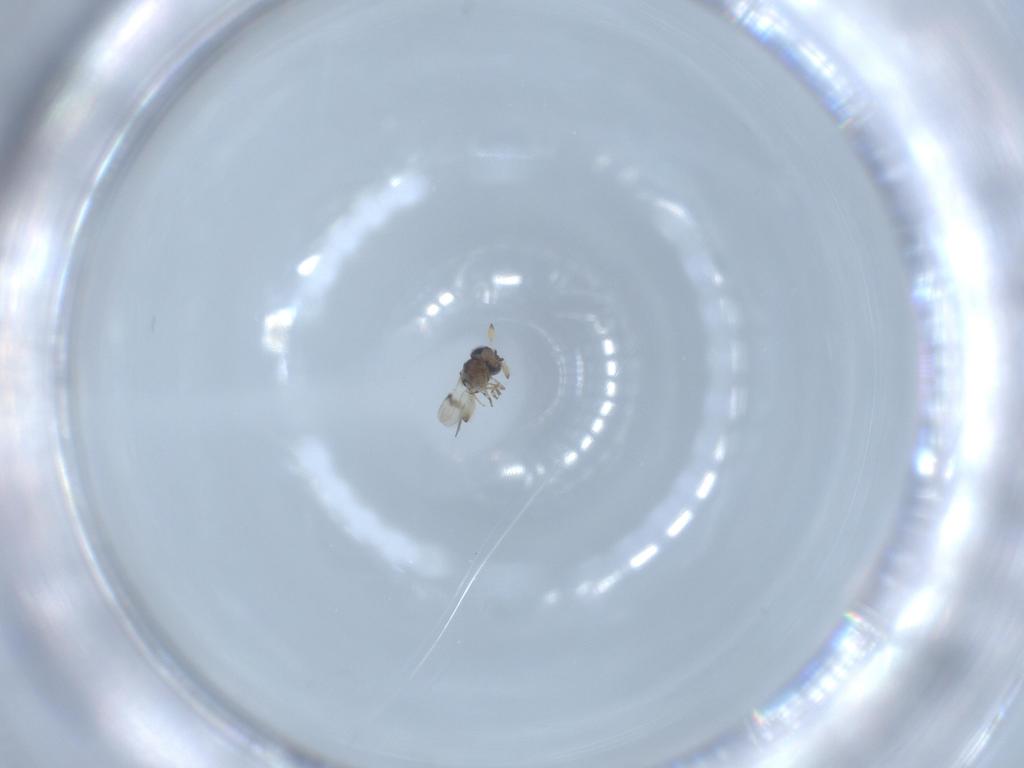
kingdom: Animalia
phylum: Arthropoda
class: Insecta
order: Hymenoptera
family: Scelionidae
